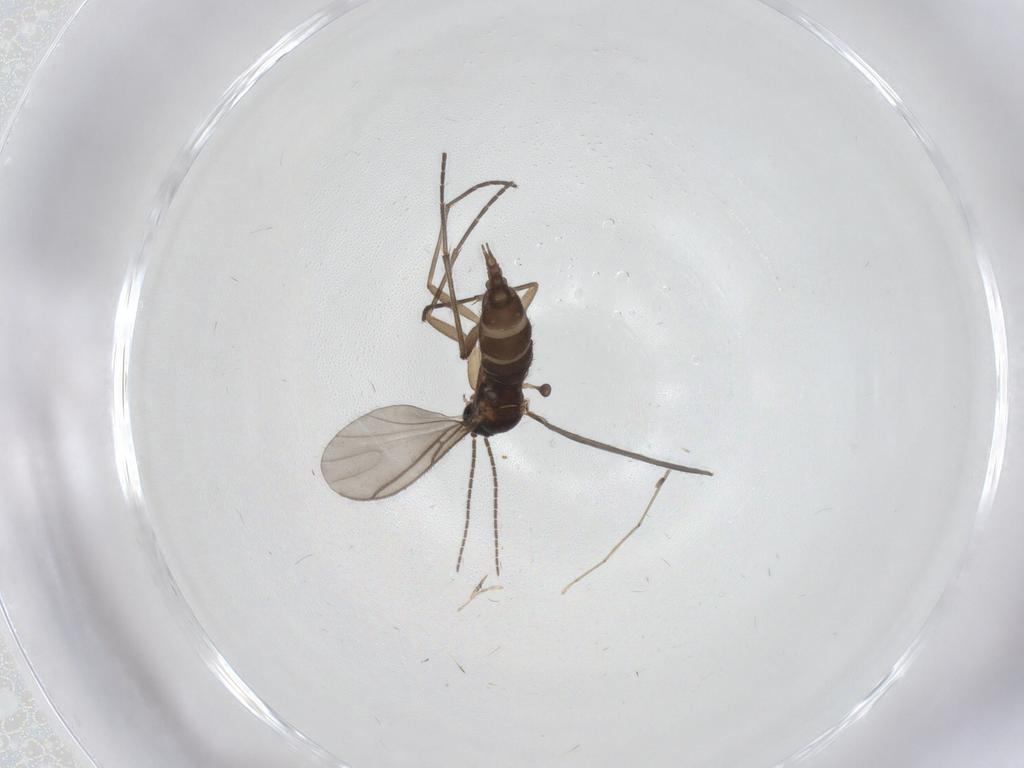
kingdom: Animalia
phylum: Arthropoda
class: Insecta
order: Diptera
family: Sciaridae
